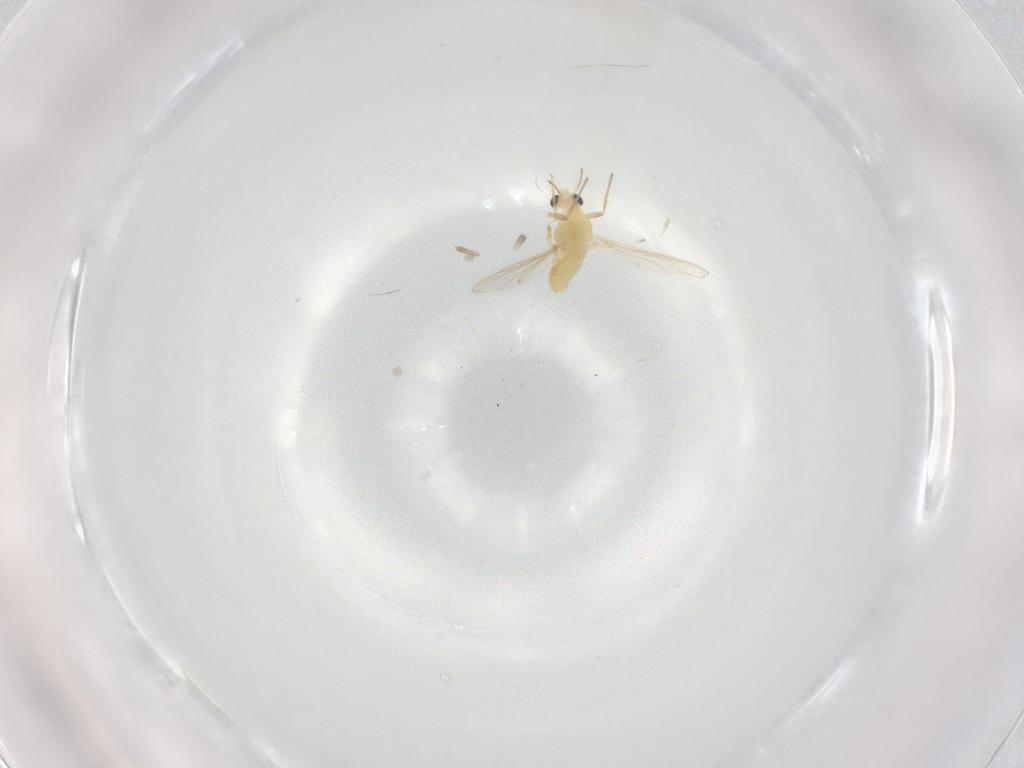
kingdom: Animalia
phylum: Arthropoda
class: Insecta
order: Diptera
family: Chironomidae
